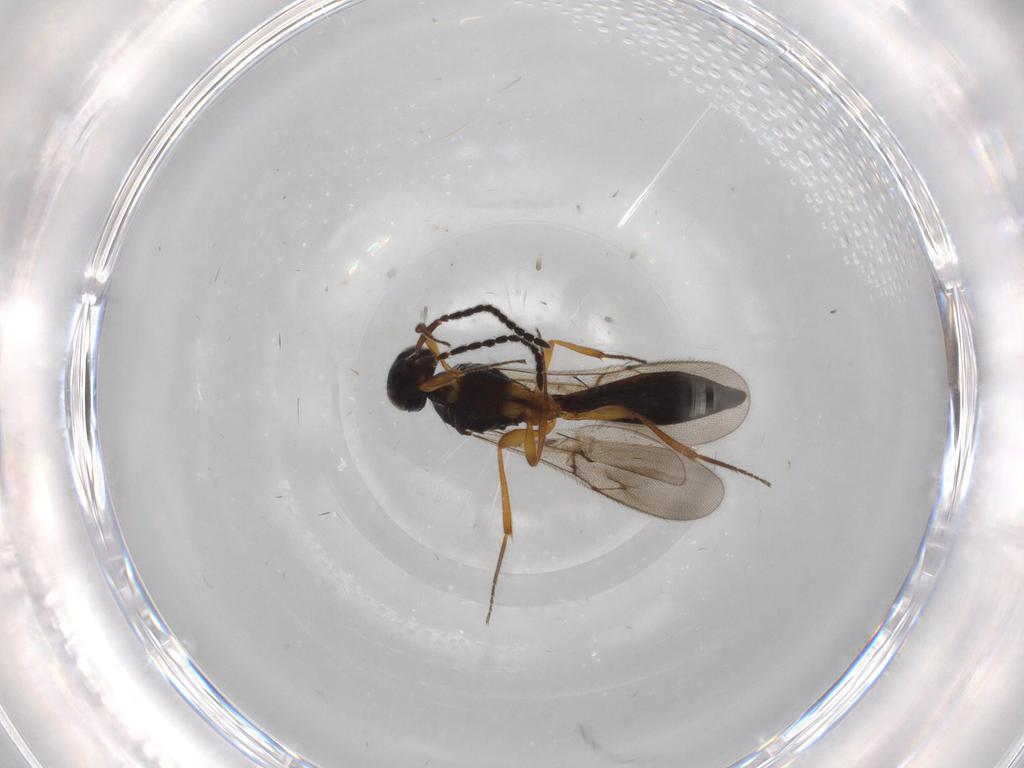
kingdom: Animalia
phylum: Arthropoda
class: Insecta
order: Hymenoptera
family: Scelionidae
